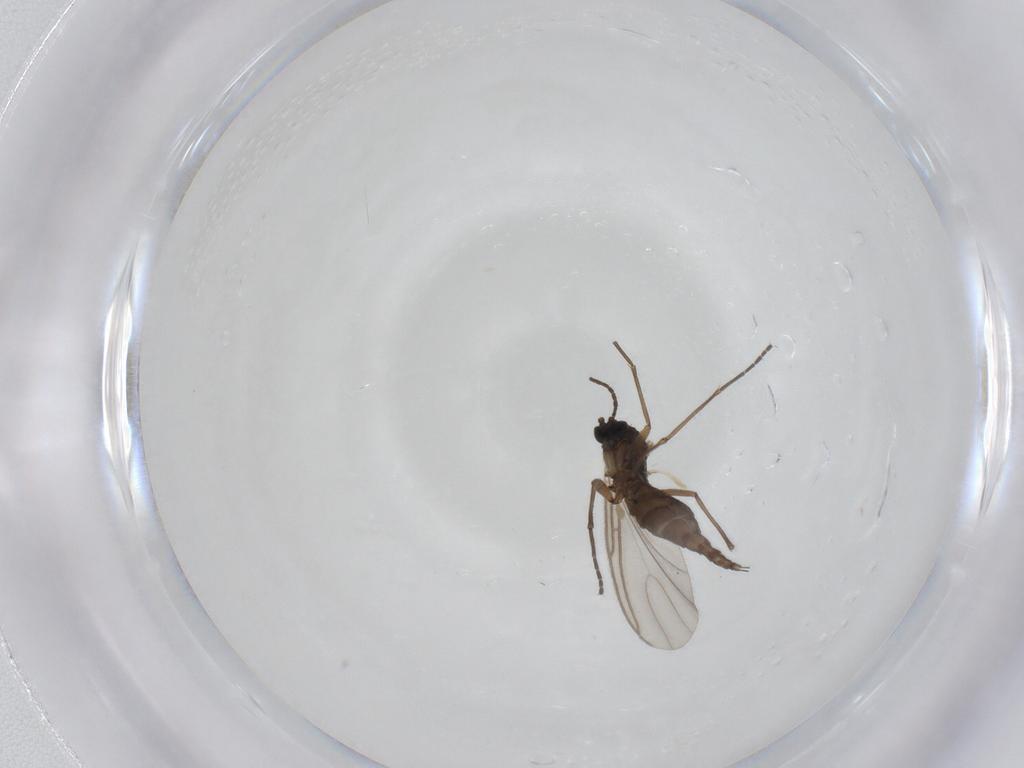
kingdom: Animalia
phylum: Arthropoda
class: Insecta
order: Diptera
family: Sciaridae
